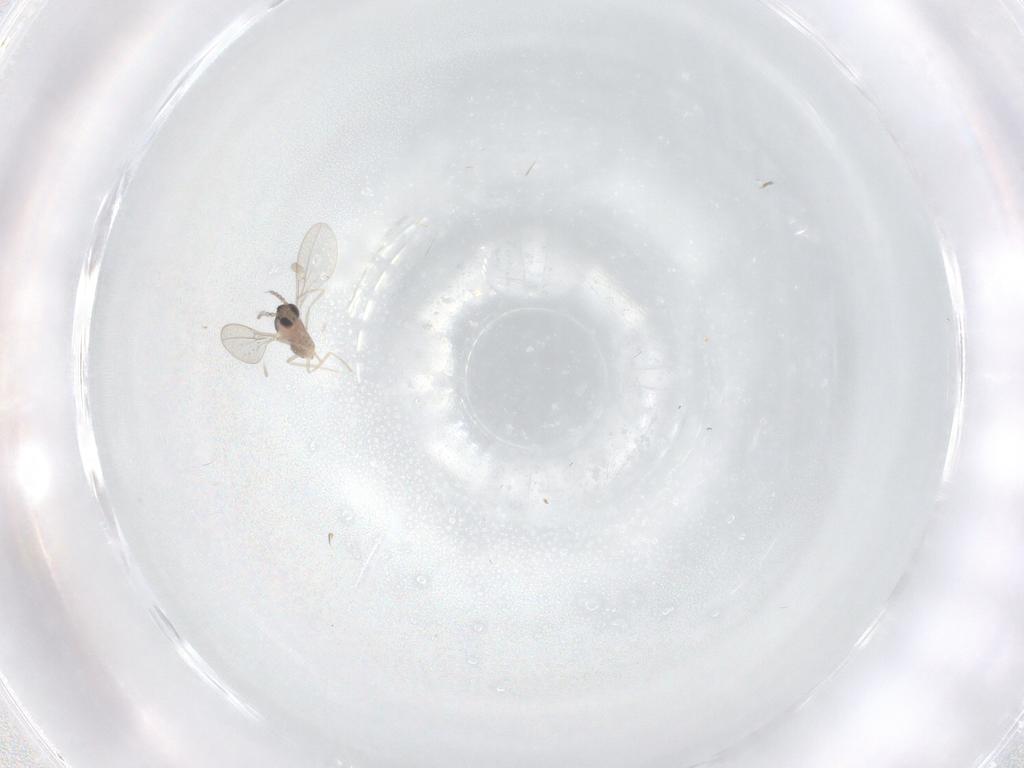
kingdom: Animalia
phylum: Arthropoda
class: Insecta
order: Diptera
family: Ceratopogonidae
